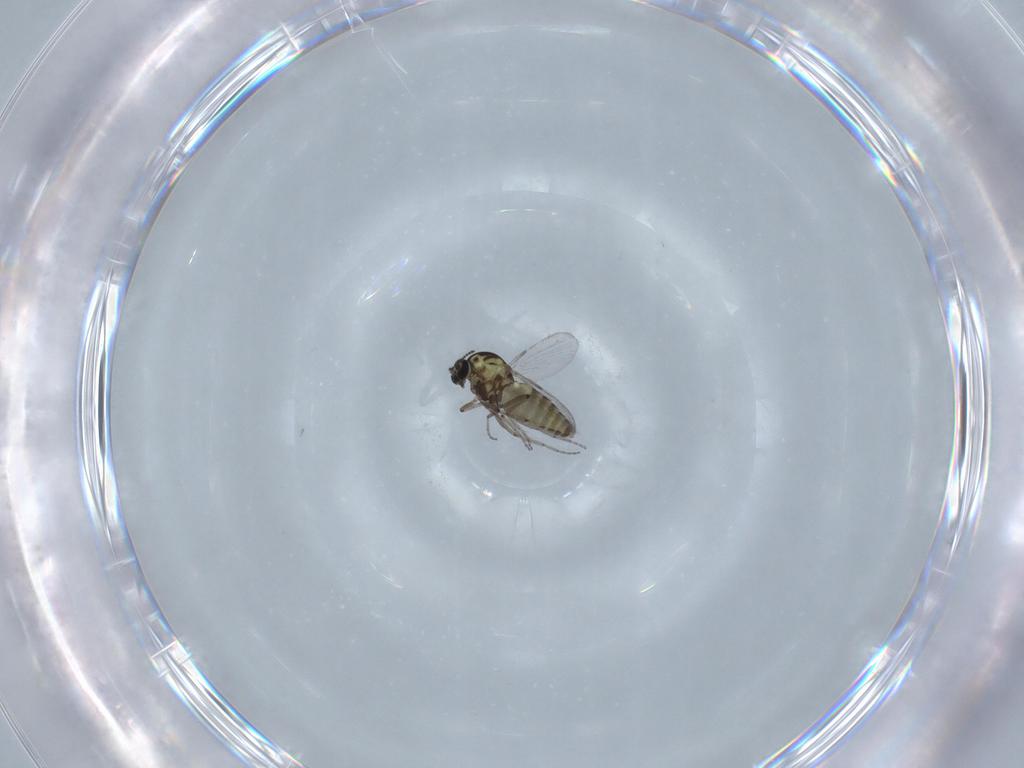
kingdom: Animalia
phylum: Arthropoda
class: Insecta
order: Diptera
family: Ceratopogonidae
